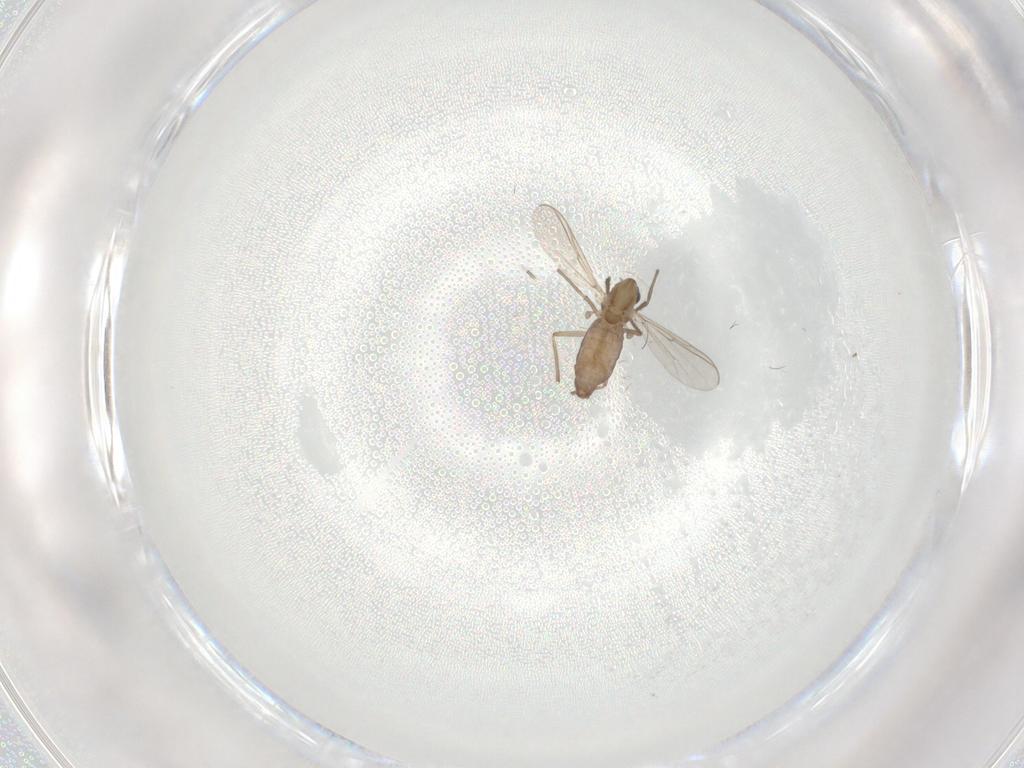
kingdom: Animalia
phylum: Arthropoda
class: Insecta
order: Diptera
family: Chironomidae
